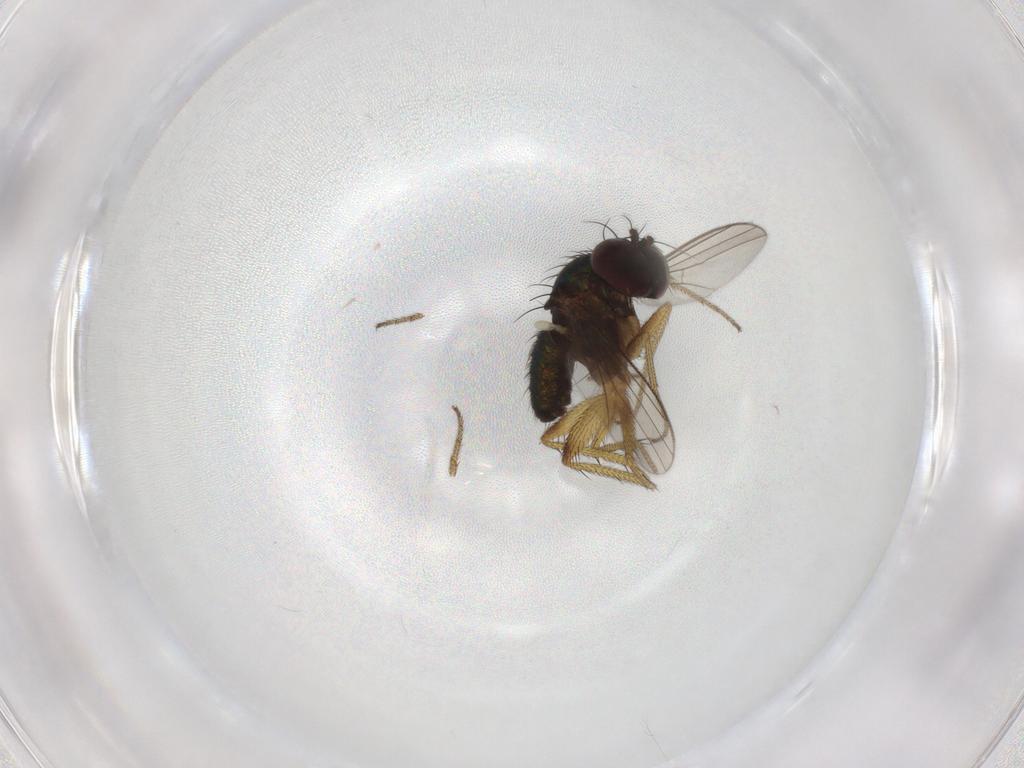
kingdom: Animalia
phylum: Arthropoda
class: Insecta
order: Diptera
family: Dolichopodidae
